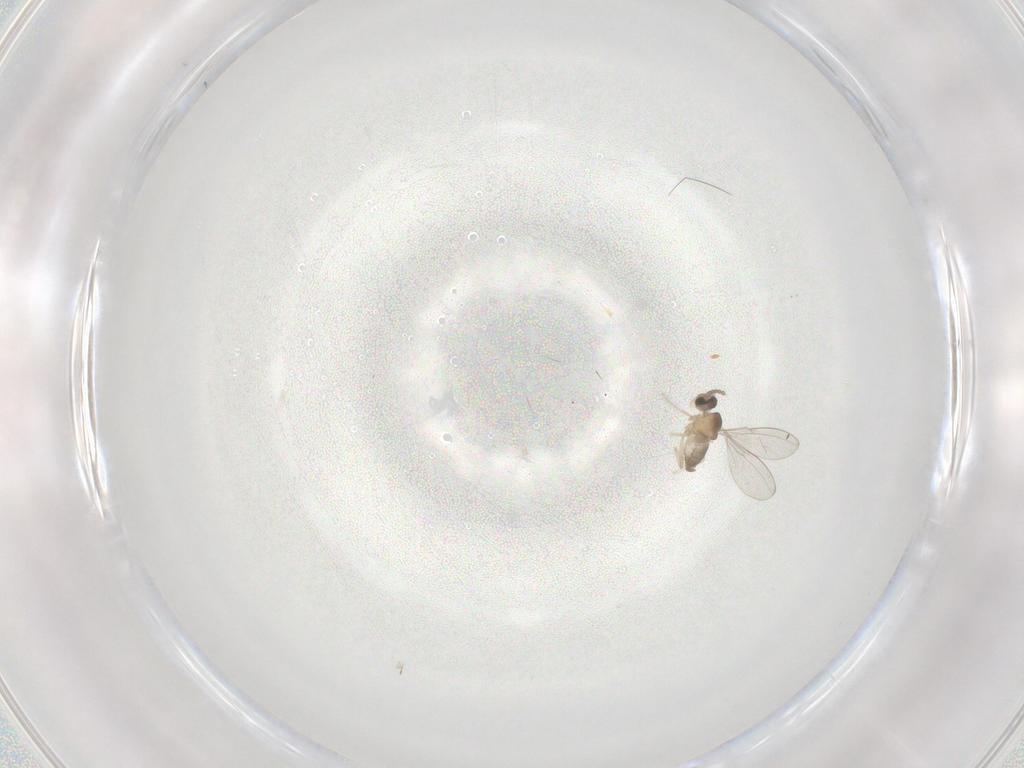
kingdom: Animalia
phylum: Arthropoda
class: Insecta
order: Diptera
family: Cecidomyiidae
